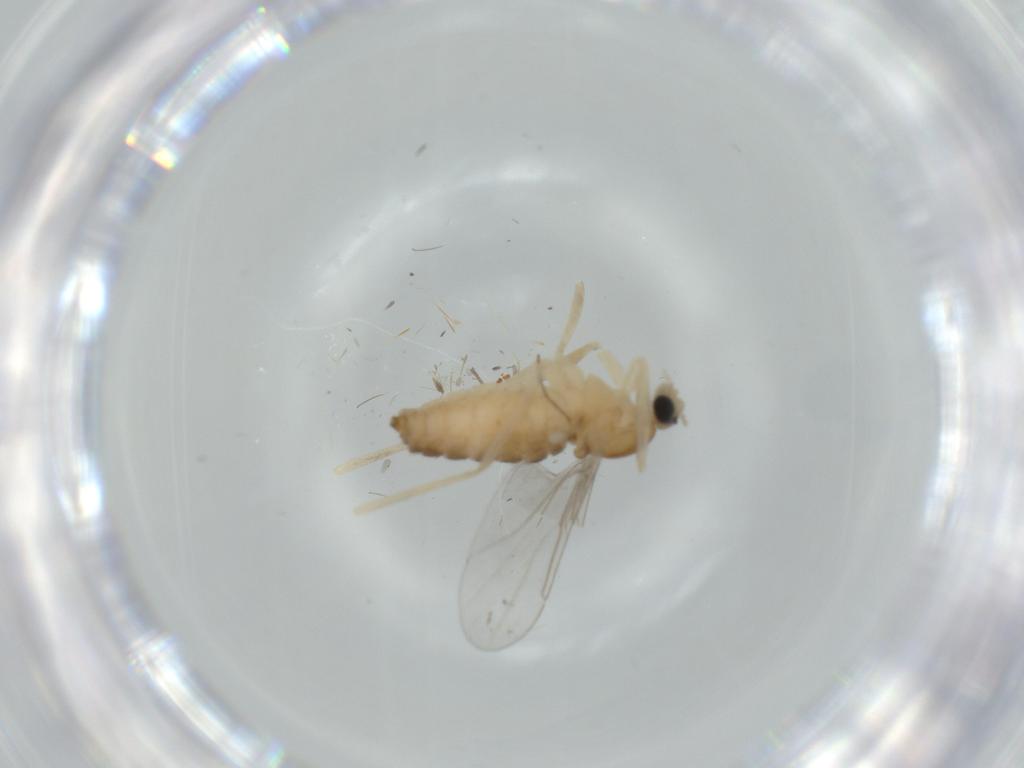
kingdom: Animalia
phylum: Arthropoda
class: Insecta
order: Diptera
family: Cecidomyiidae
